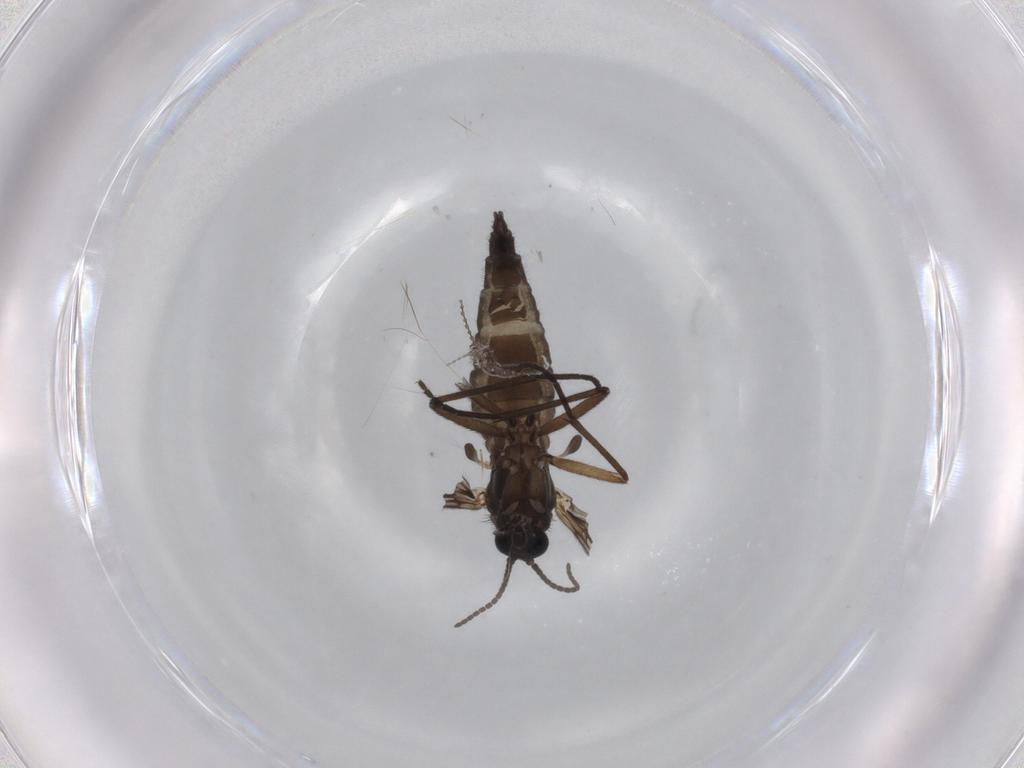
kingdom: Animalia
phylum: Arthropoda
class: Insecta
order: Diptera
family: Sciaridae
